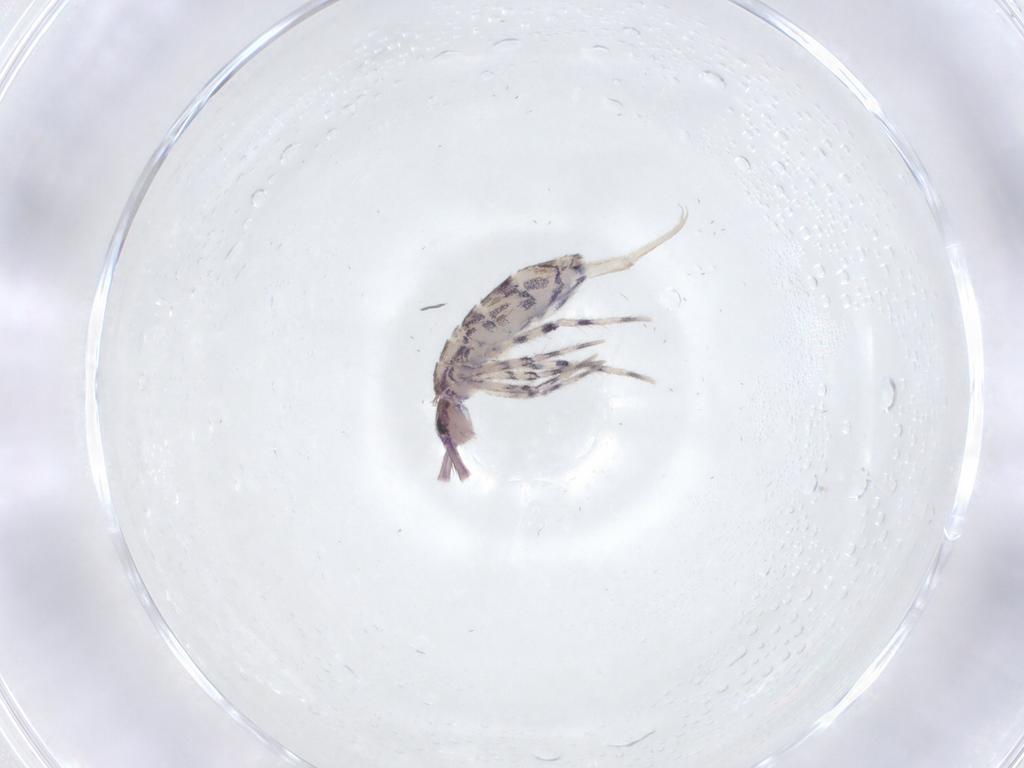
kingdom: Animalia
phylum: Arthropoda
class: Collembola
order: Entomobryomorpha
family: Entomobryidae
